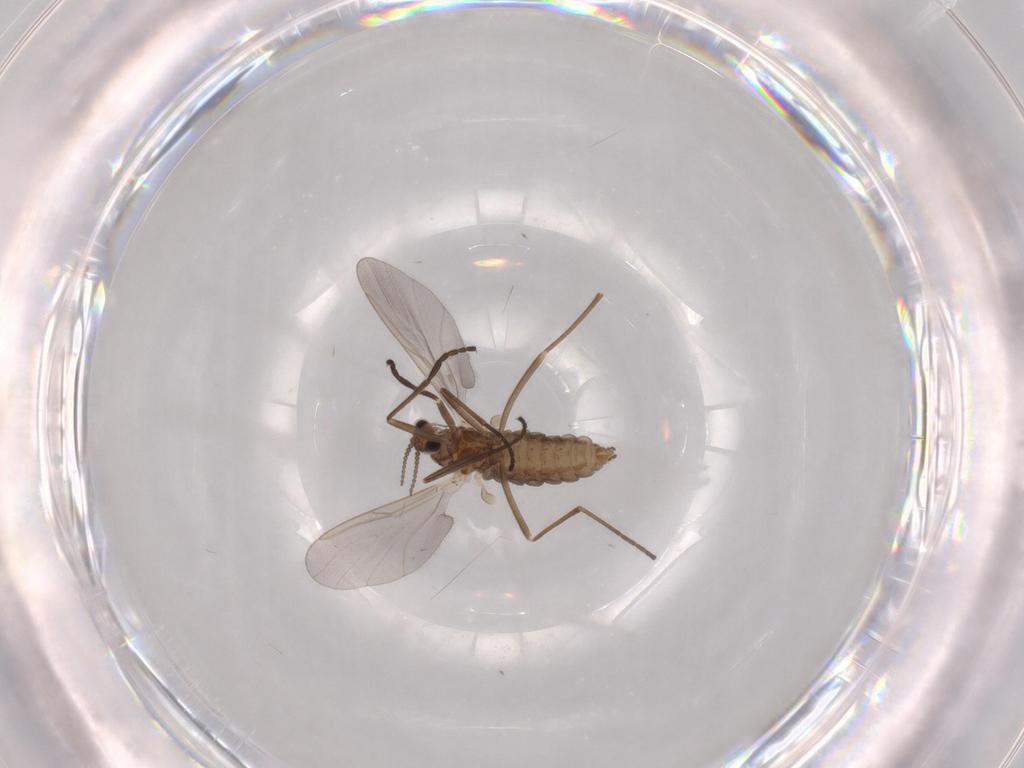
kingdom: Animalia
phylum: Arthropoda
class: Insecta
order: Diptera
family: Cecidomyiidae
